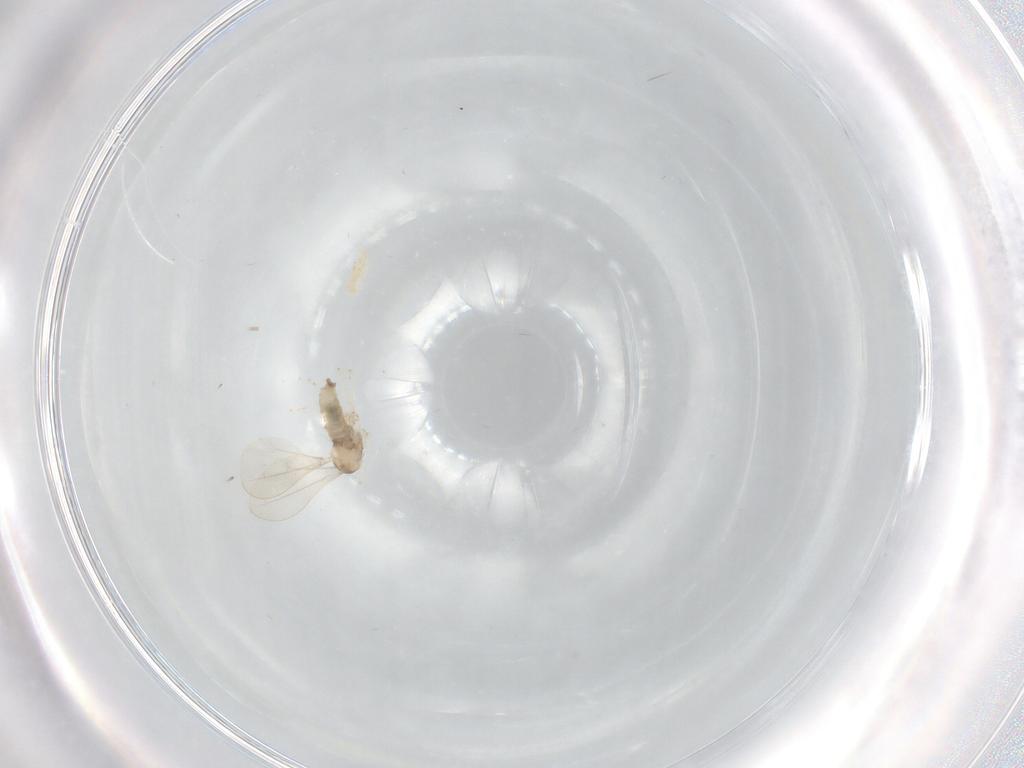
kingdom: Animalia
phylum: Arthropoda
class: Insecta
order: Diptera
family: Cecidomyiidae
